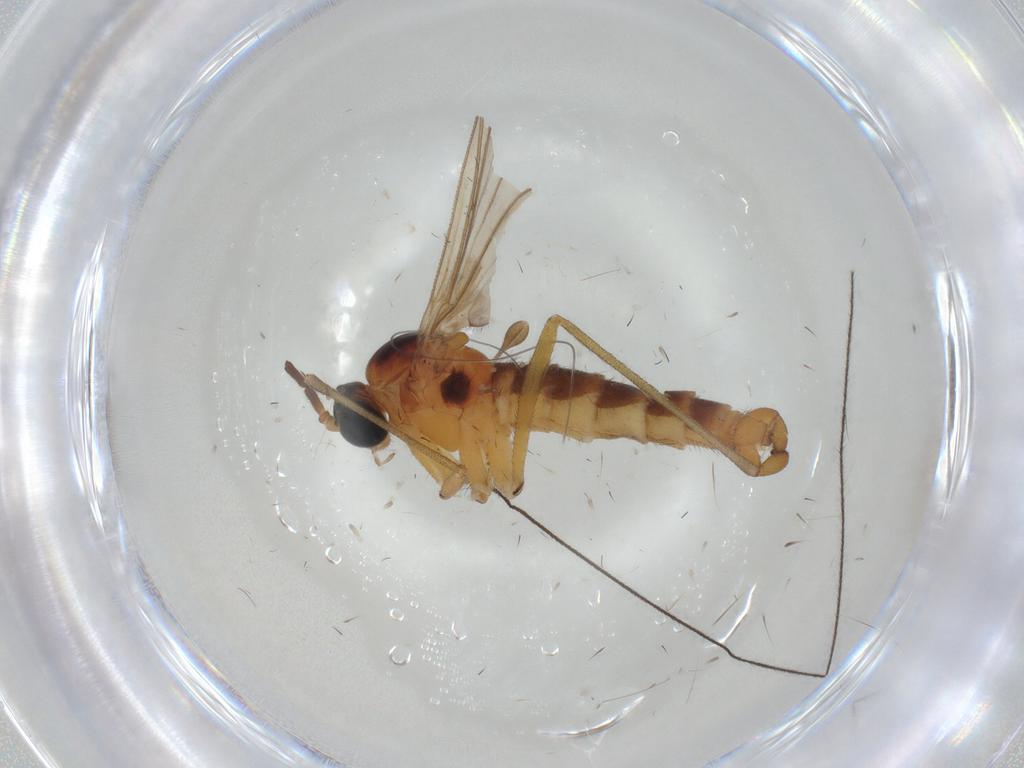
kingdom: Animalia
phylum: Arthropoda
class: Insecta
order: Diptera
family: Sciaridae
